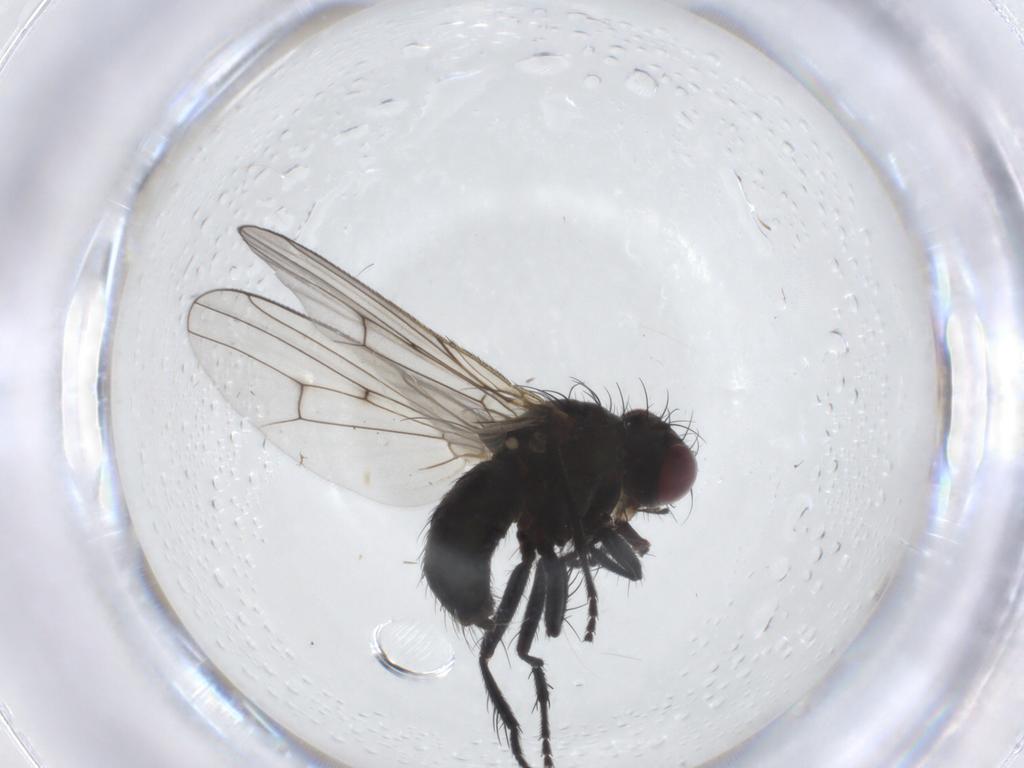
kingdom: Animalia
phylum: Arthropoda
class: Insecta
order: Diptera
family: Muscidae
